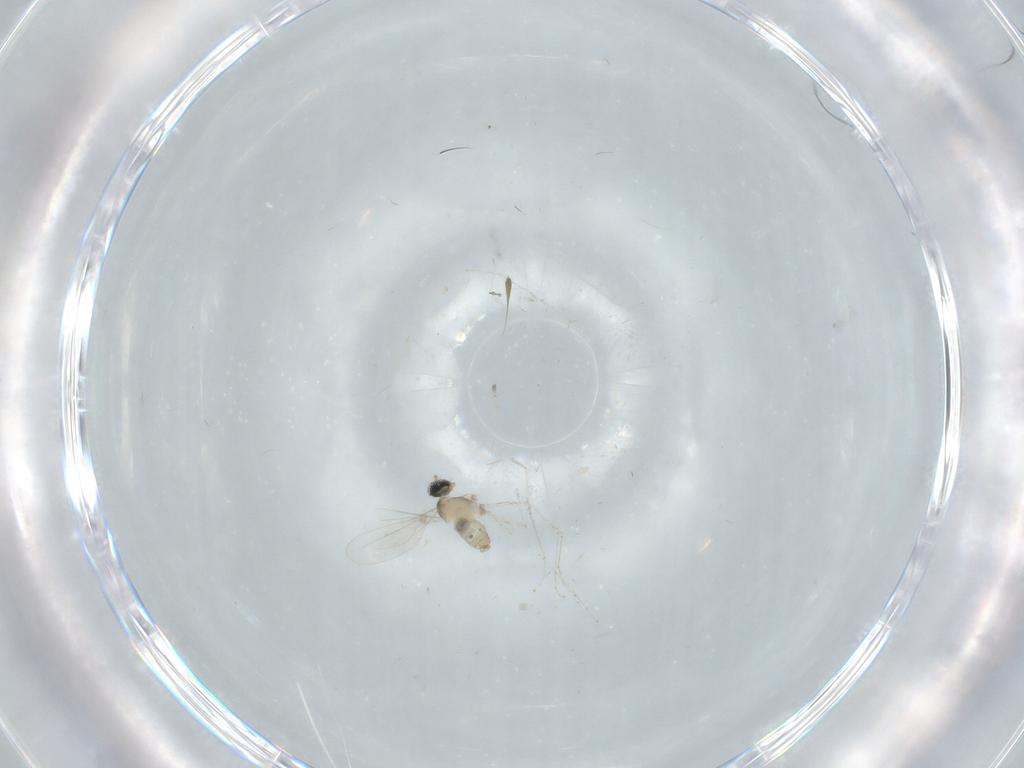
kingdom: Animalia
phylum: Arthropoda
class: Insecta
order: Diptera
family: Cecidomyiidae
